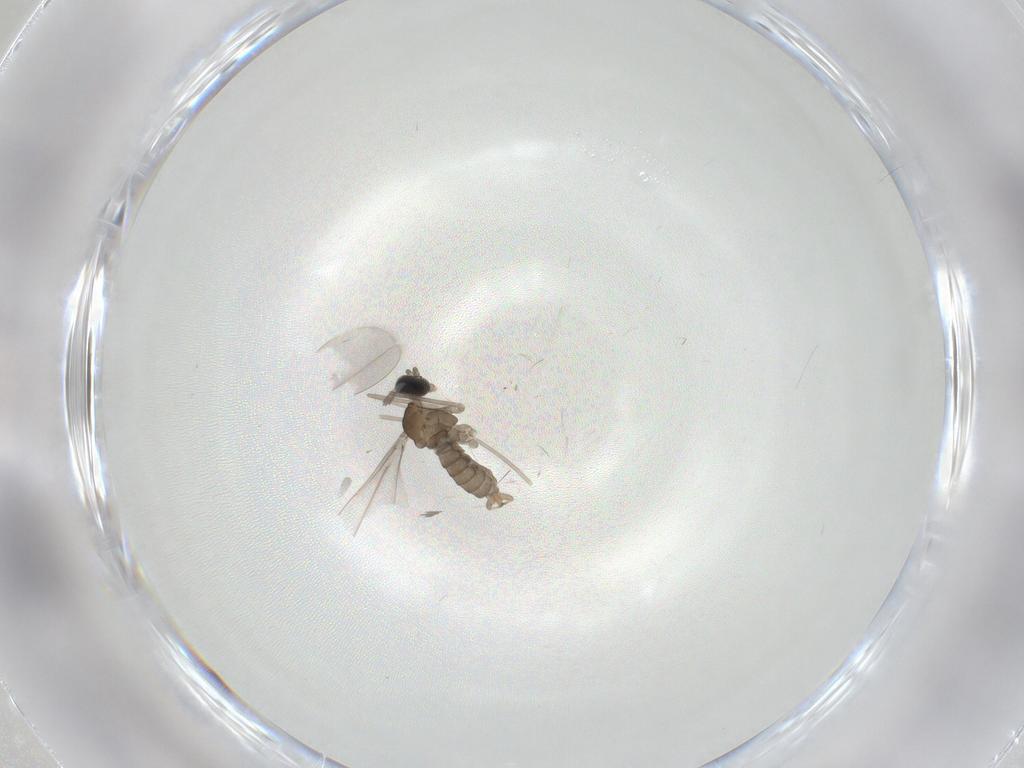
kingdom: Animalia
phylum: Arthropoda
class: Insecta
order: Diptera
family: Cecidomyiidae
